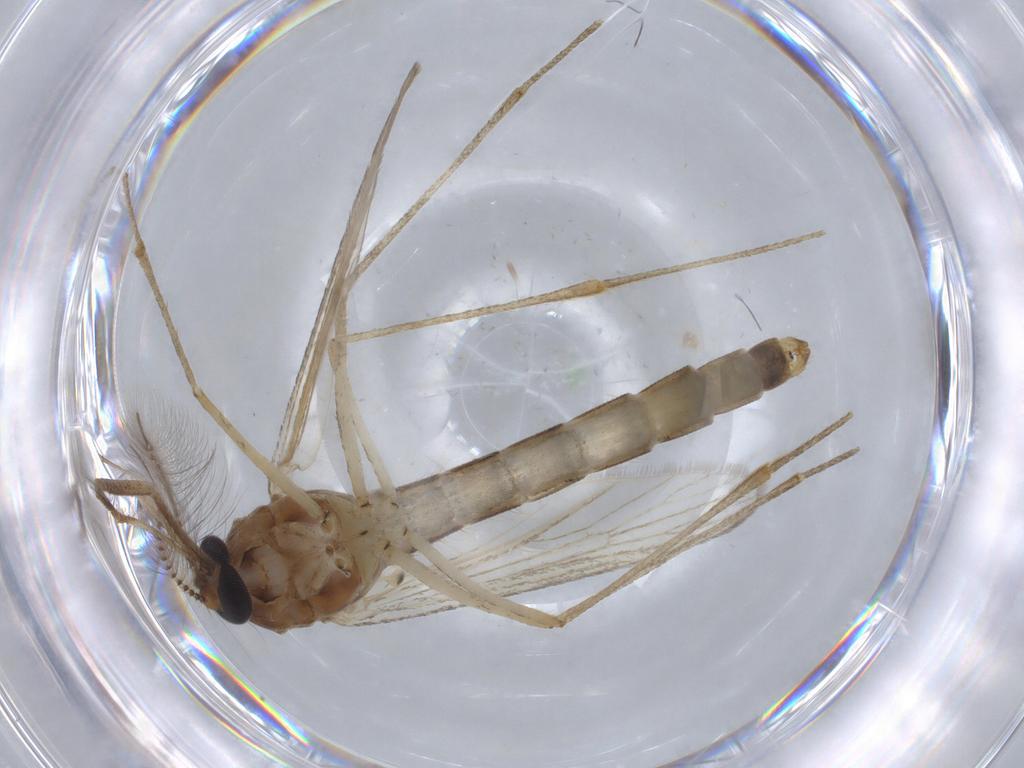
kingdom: Animalia
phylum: Arthropoda
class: Insecta
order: Diptera
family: Culicidae
